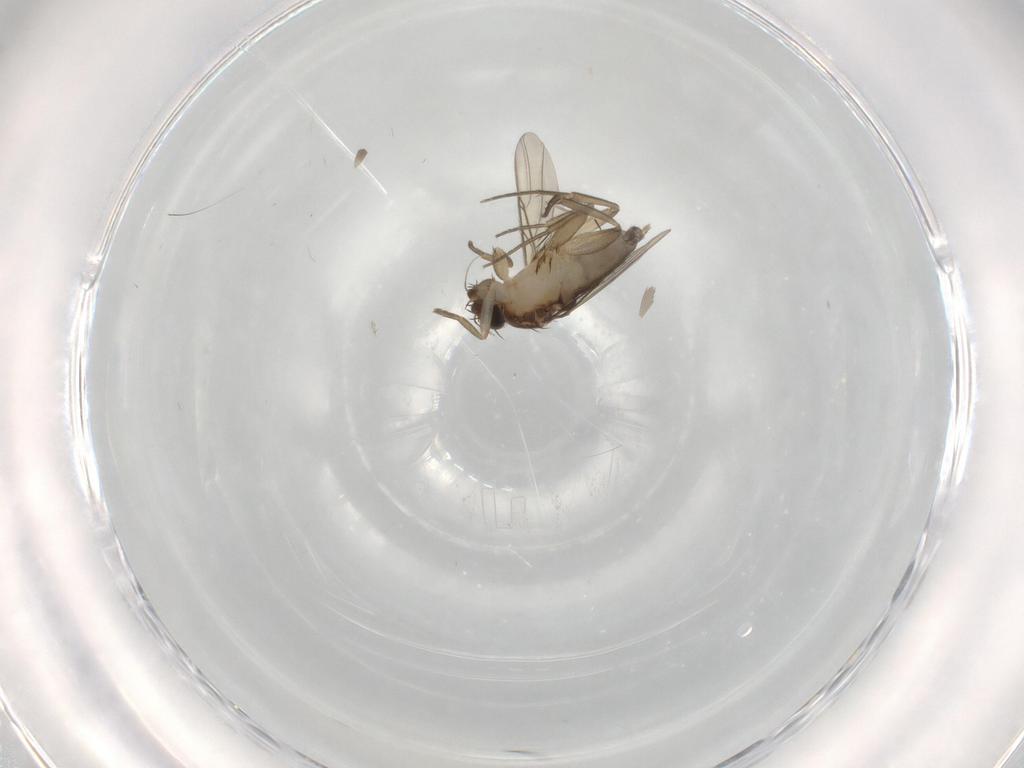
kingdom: Animalia
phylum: Arthropoda
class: Insecta
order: Diptera
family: Phoridae
